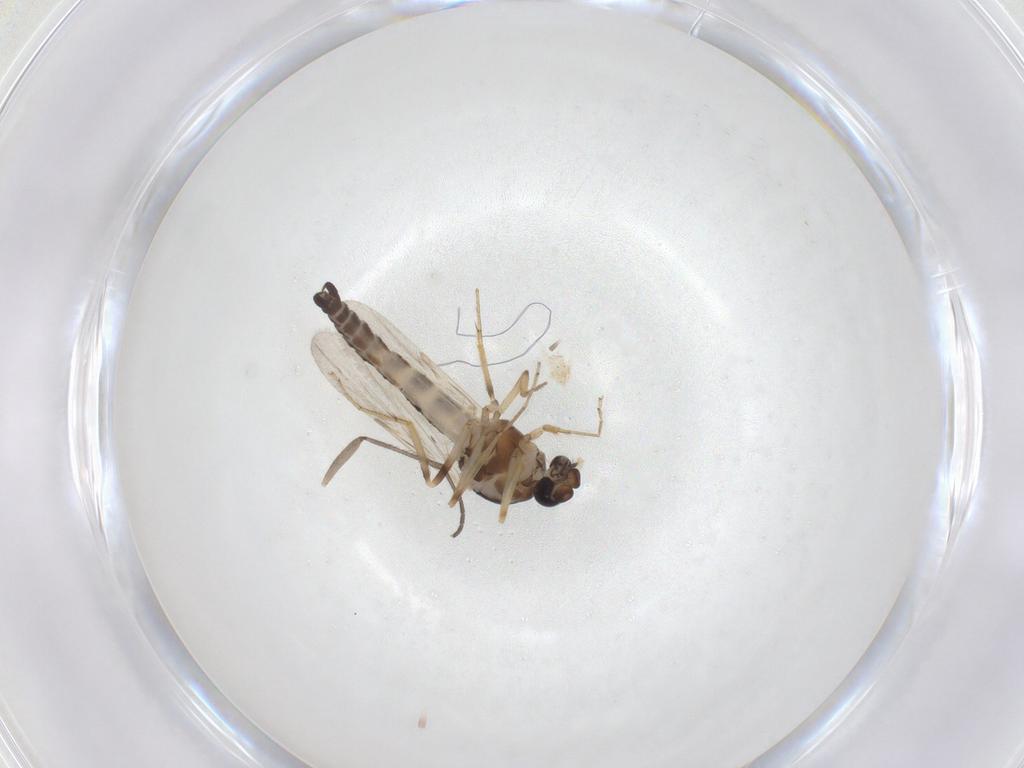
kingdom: Animalia
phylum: Arthropoda
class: Insecta
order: Diptera
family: Ceratopogonidae
